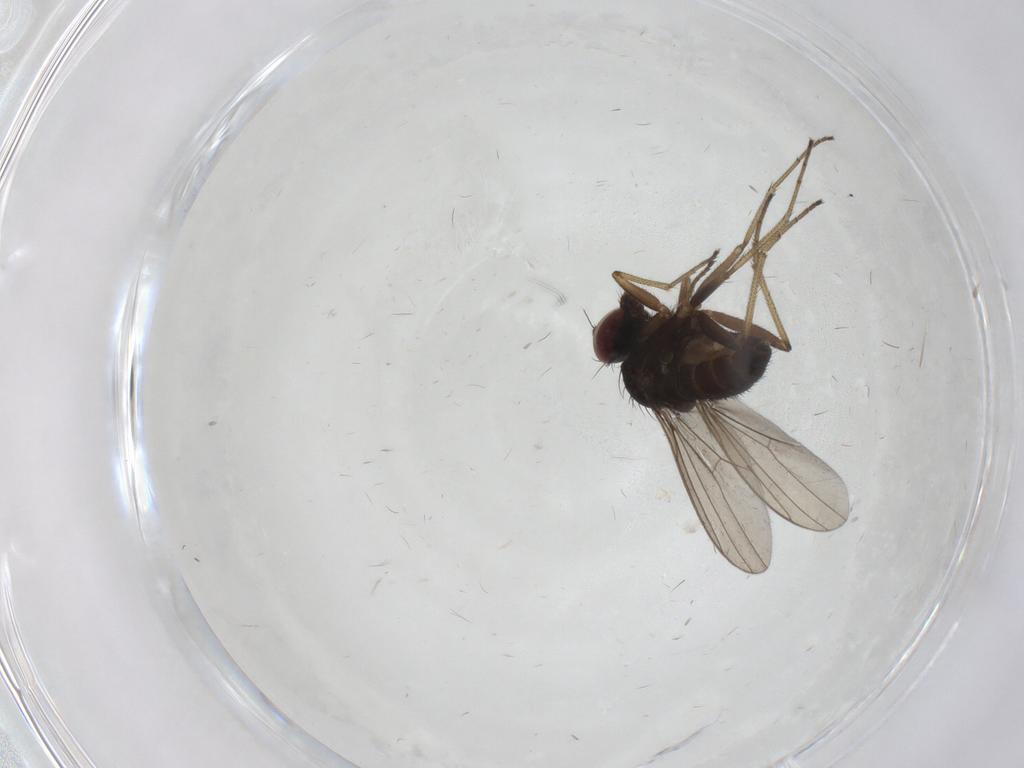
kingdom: Animalia
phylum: Arthropoda
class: Insecta
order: Diptera
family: Dolichopodidae
